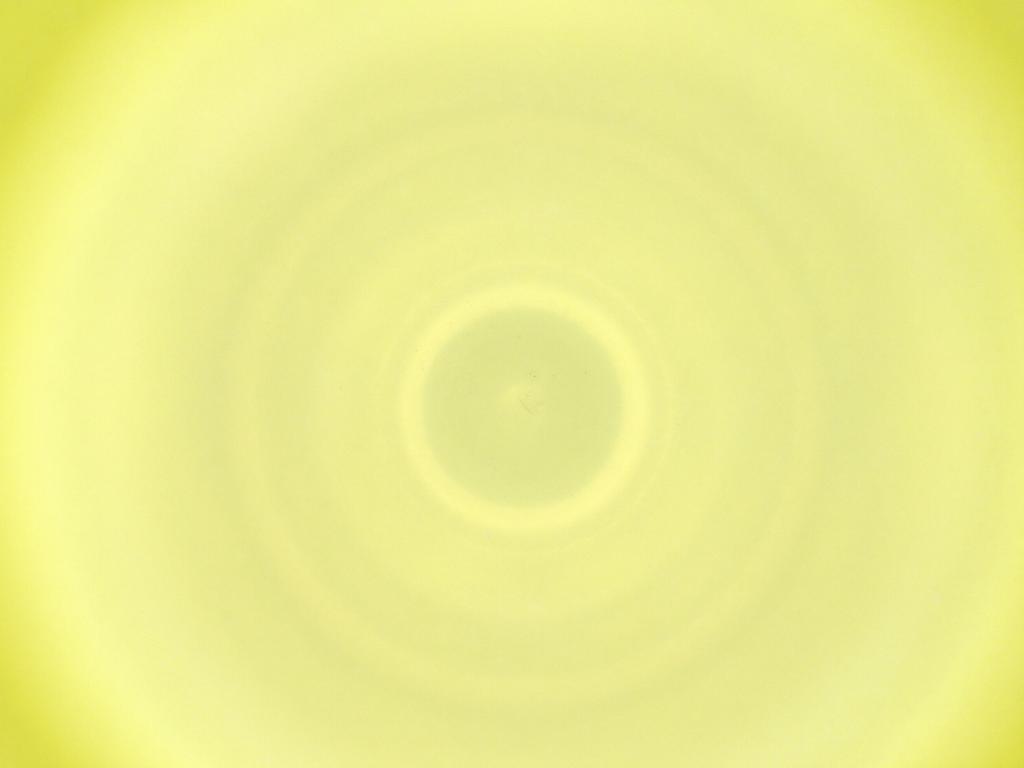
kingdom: Animalia
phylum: Arthropoda
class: Insecta
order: Diptera
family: Cecidomyiidae
